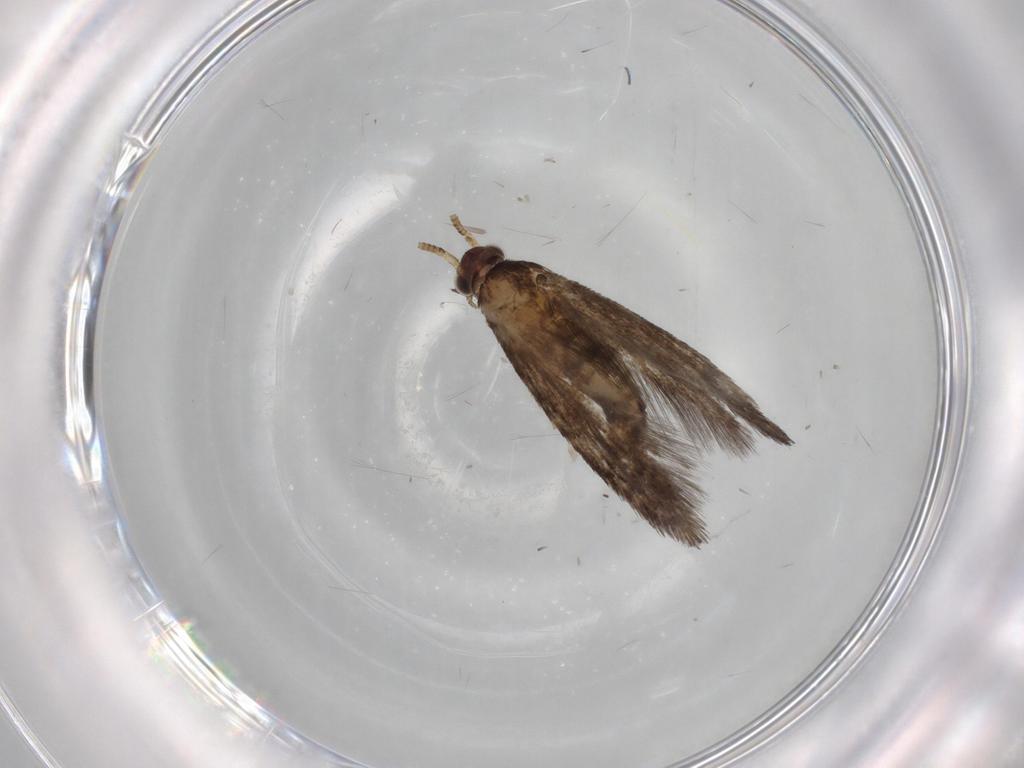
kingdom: Animalia
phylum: Arthropoda
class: Insecta
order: Lepidoptera
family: Tineidae
